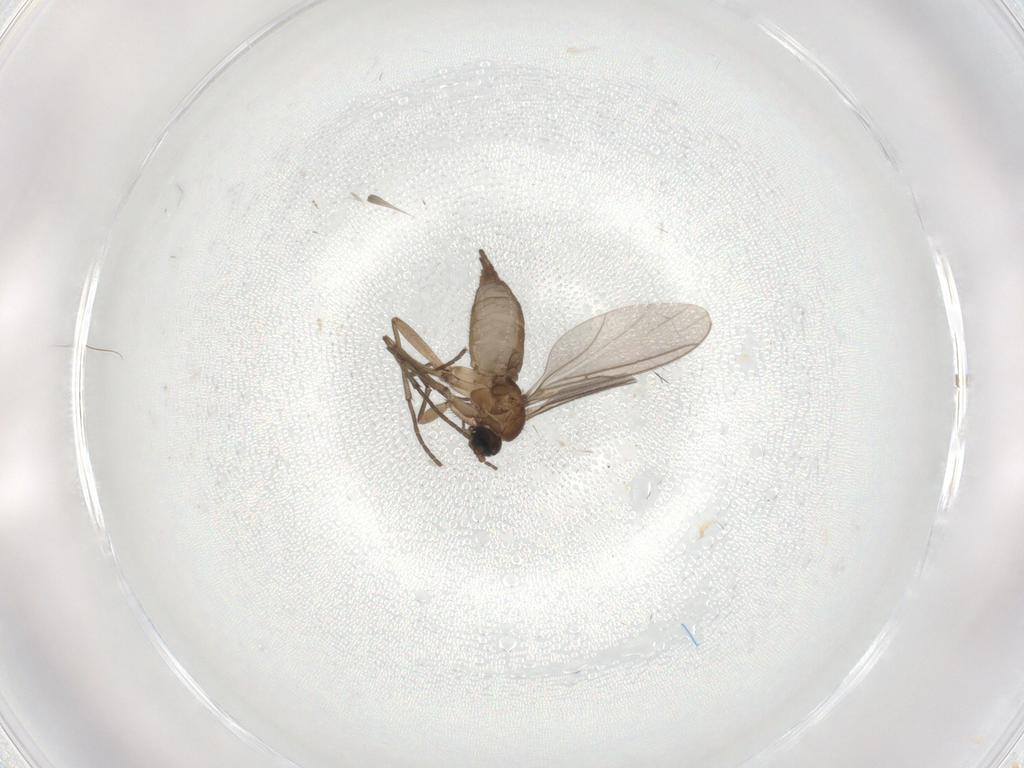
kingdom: Animalia
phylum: Arthropoda
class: Insecta
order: Diptera
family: Sciaridae
